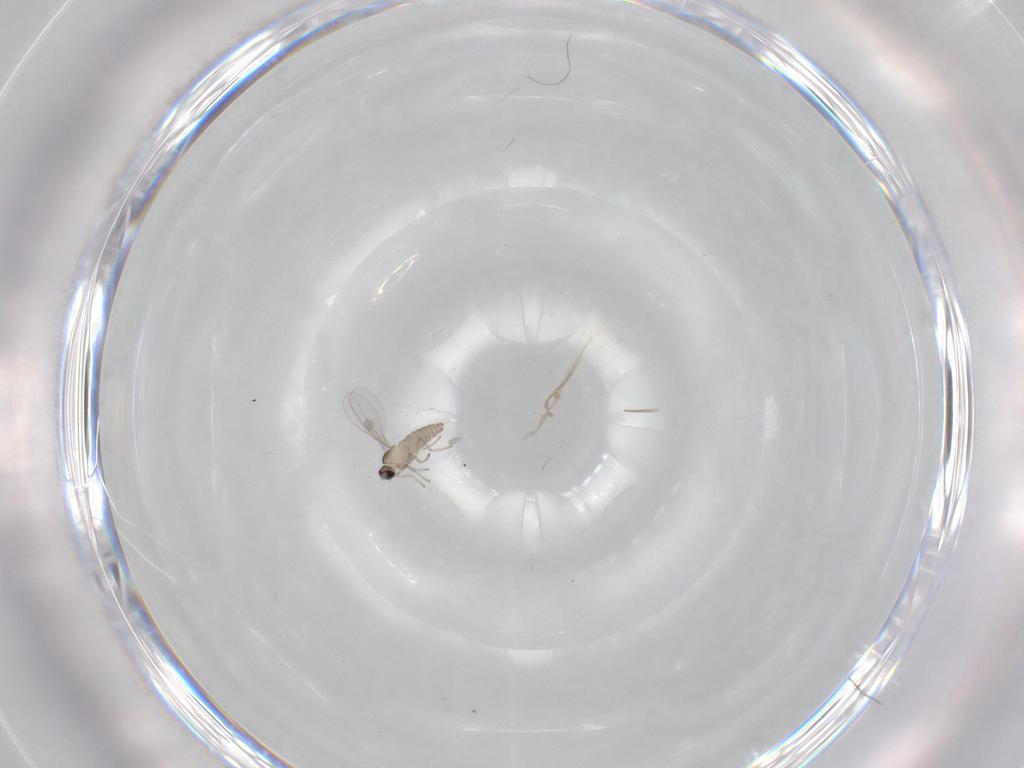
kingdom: Animalia
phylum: Arthropoda
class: Insecta
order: Diptera
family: Cecidomyiidae
